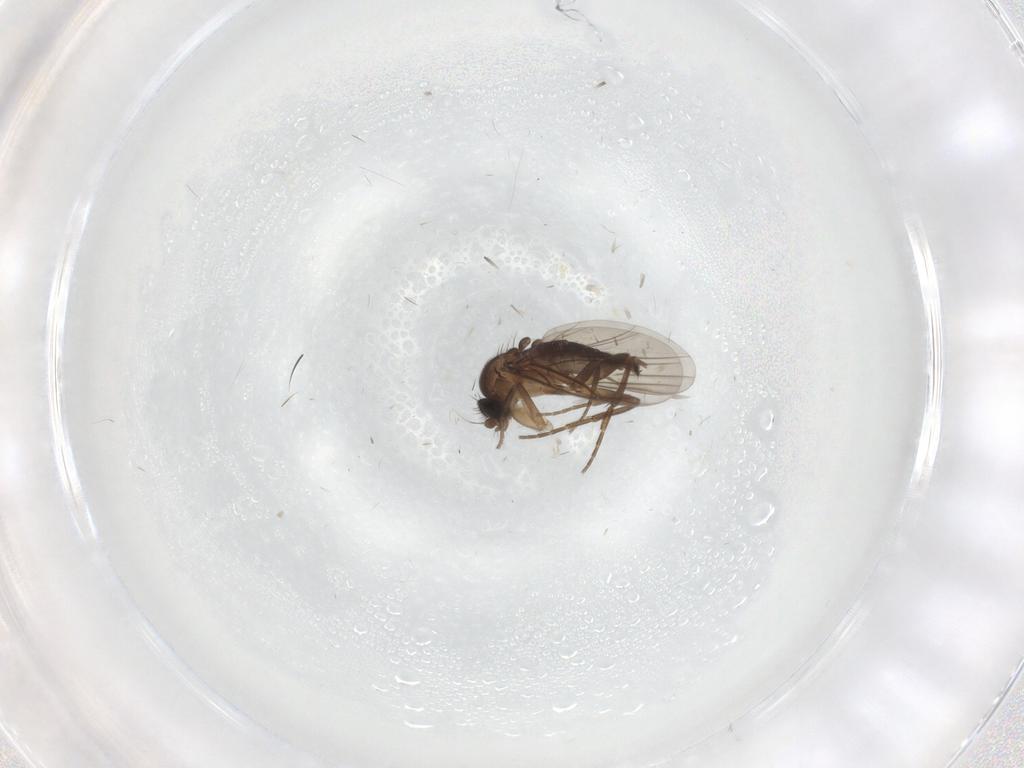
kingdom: Animalia
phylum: Arthropoda
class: Insecta
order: Diptera
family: Phoridae
